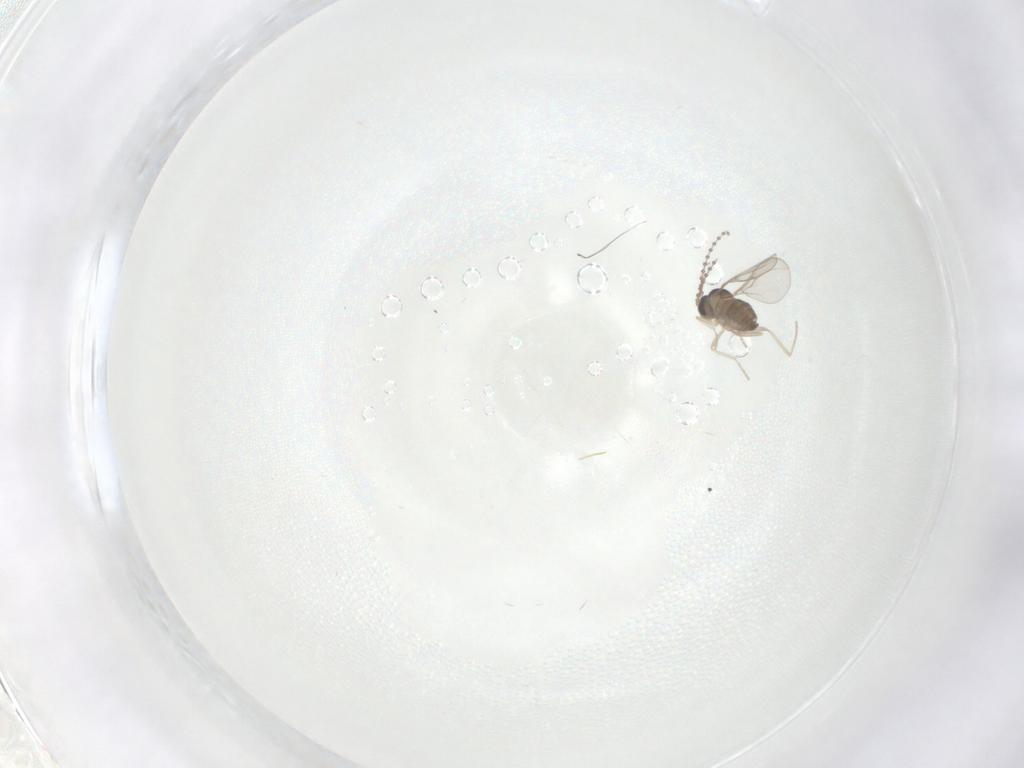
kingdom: Animalia
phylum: Arthropoda
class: Insecta
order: Diptera
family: Cecidomyiidae
